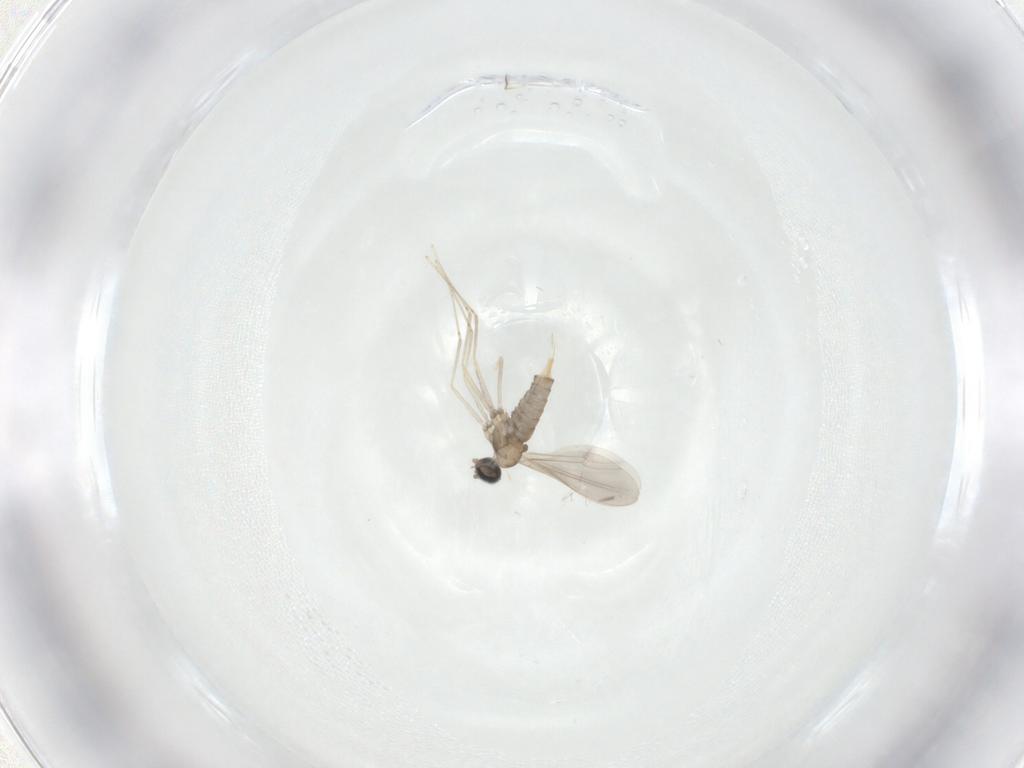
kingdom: Animalia
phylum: Arthropoda
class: Insecta
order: Diptera
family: Cecidomyiidae
